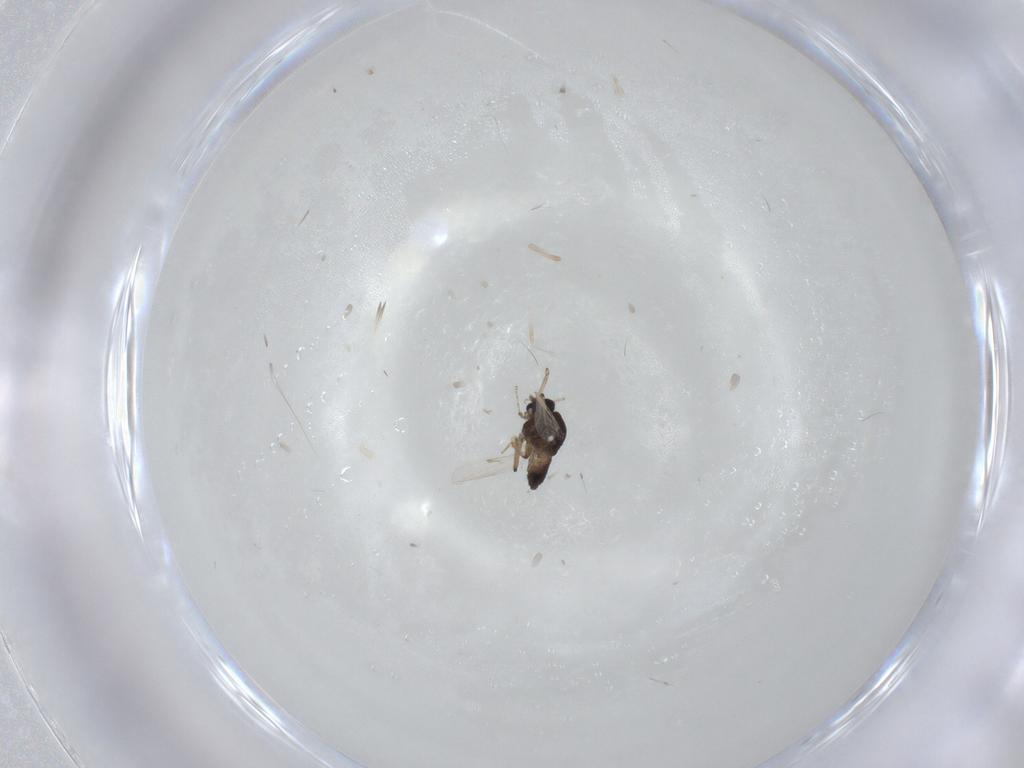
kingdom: Animalia
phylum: Arthropoda
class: Insecta
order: Diptera
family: Ceratopogonidae
